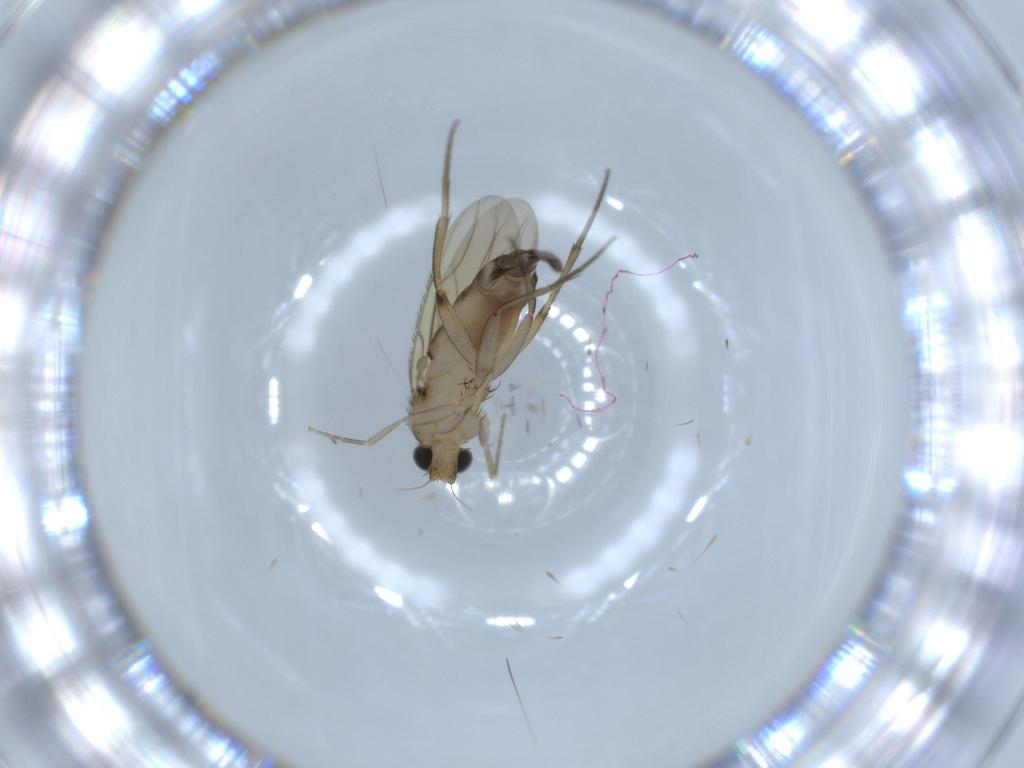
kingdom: Animalia
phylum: Arthropoda
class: Insecta
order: Diptera
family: Phoridae
